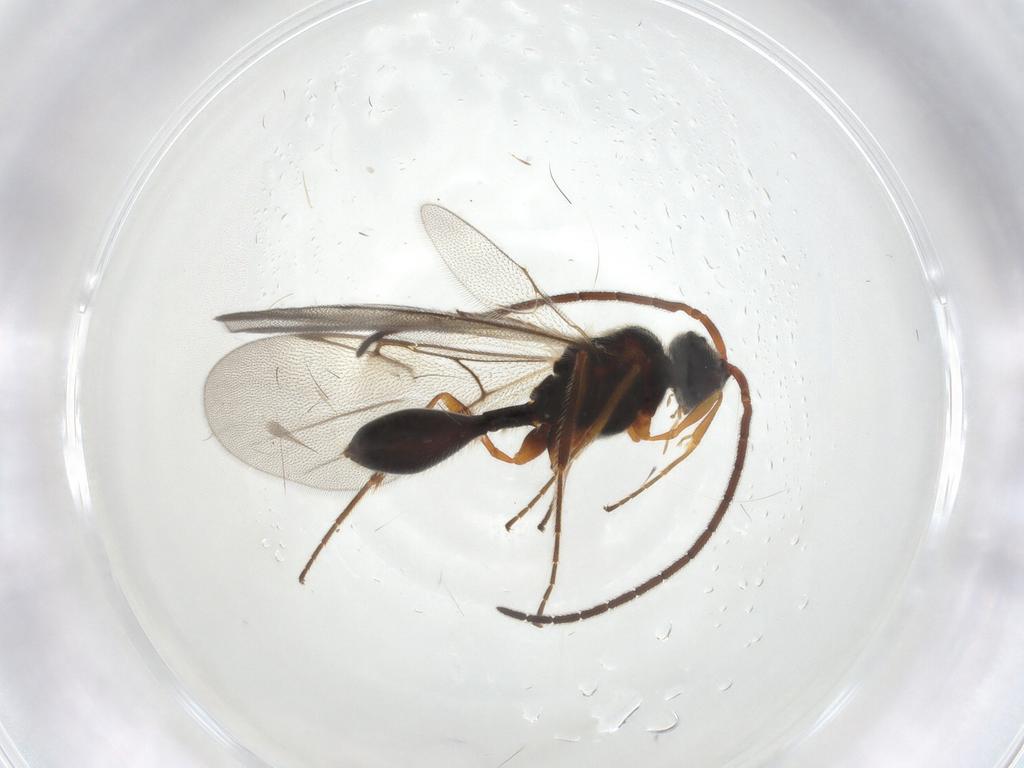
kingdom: Animalia
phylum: Arthropoda
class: Insecta
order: Hymenoptera
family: Diapriidae
